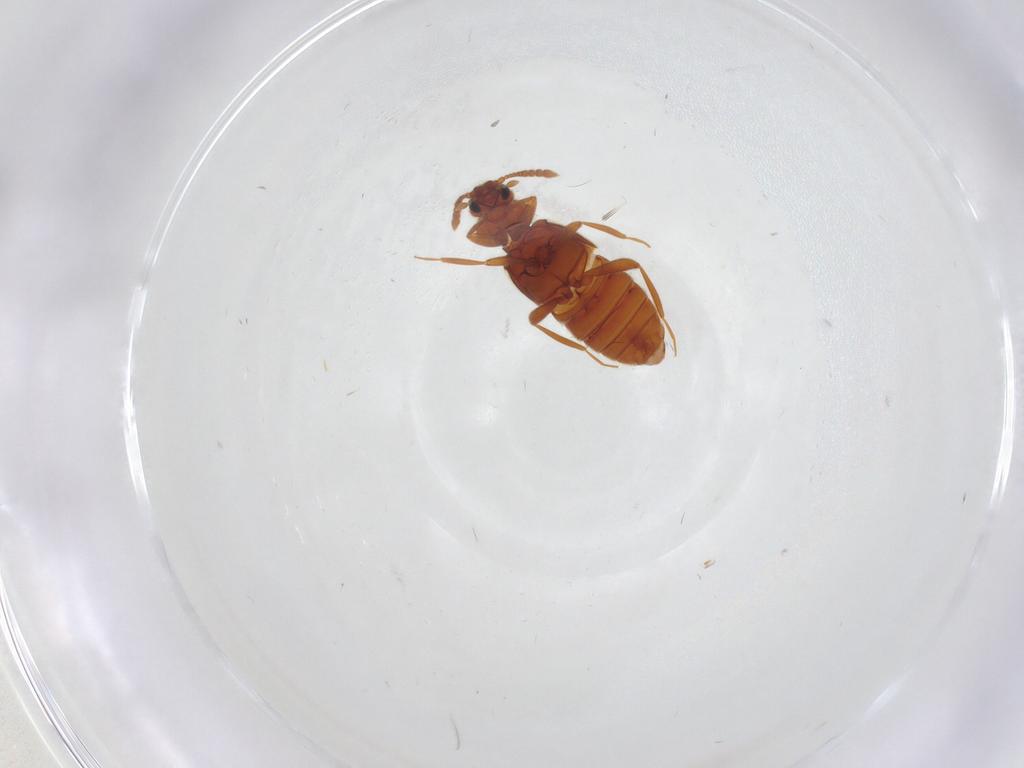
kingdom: Animalia
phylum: Arthropoda
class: Insecta
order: Coleoptera
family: Staphylinidae
